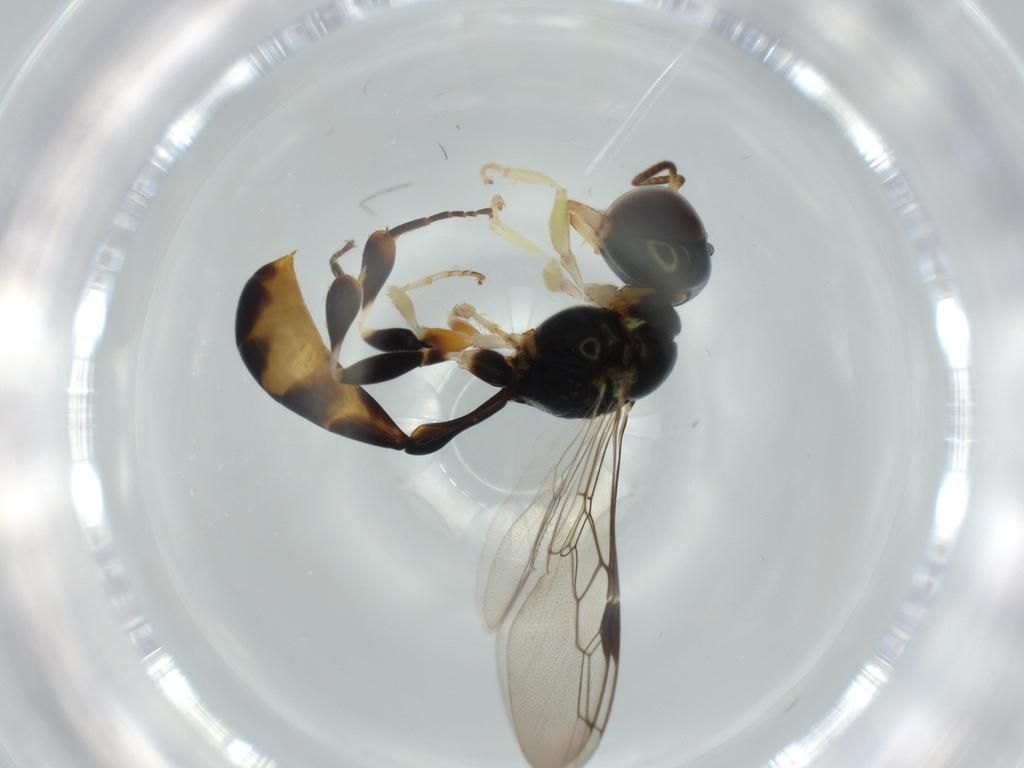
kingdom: Animalia
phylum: Arthropoda
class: Insecta
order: Hymenoptera
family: Crabronidae
